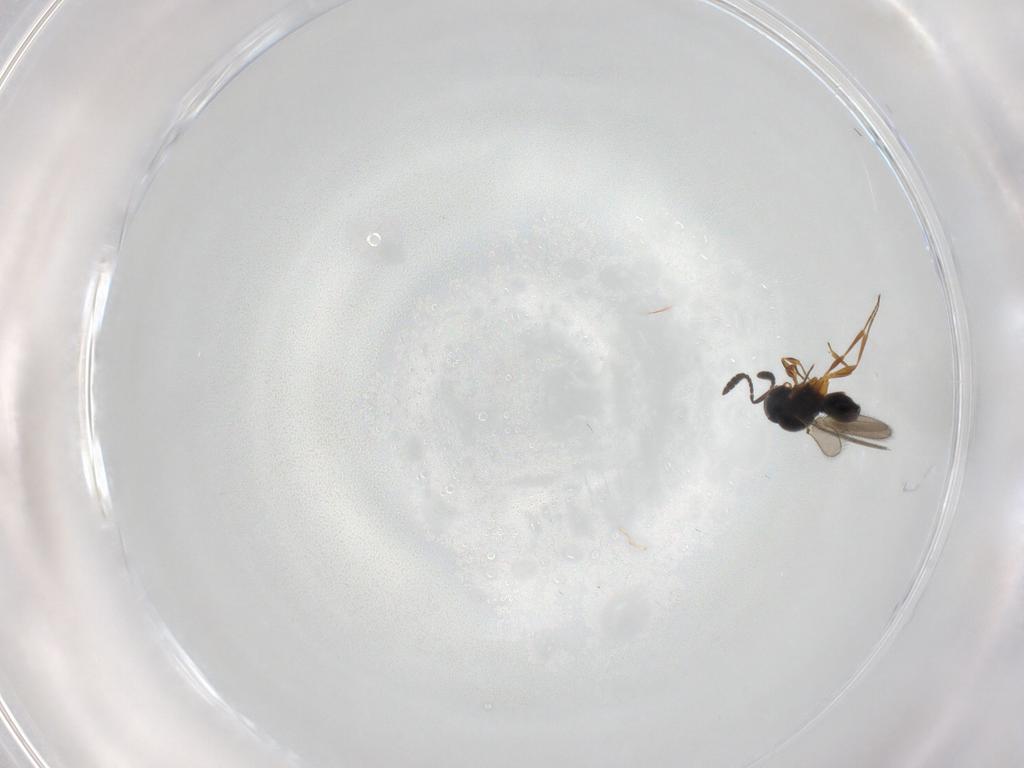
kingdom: Animalia
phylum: Arthropoda
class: Insecta
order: Hymenoptera
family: Scelionidae
